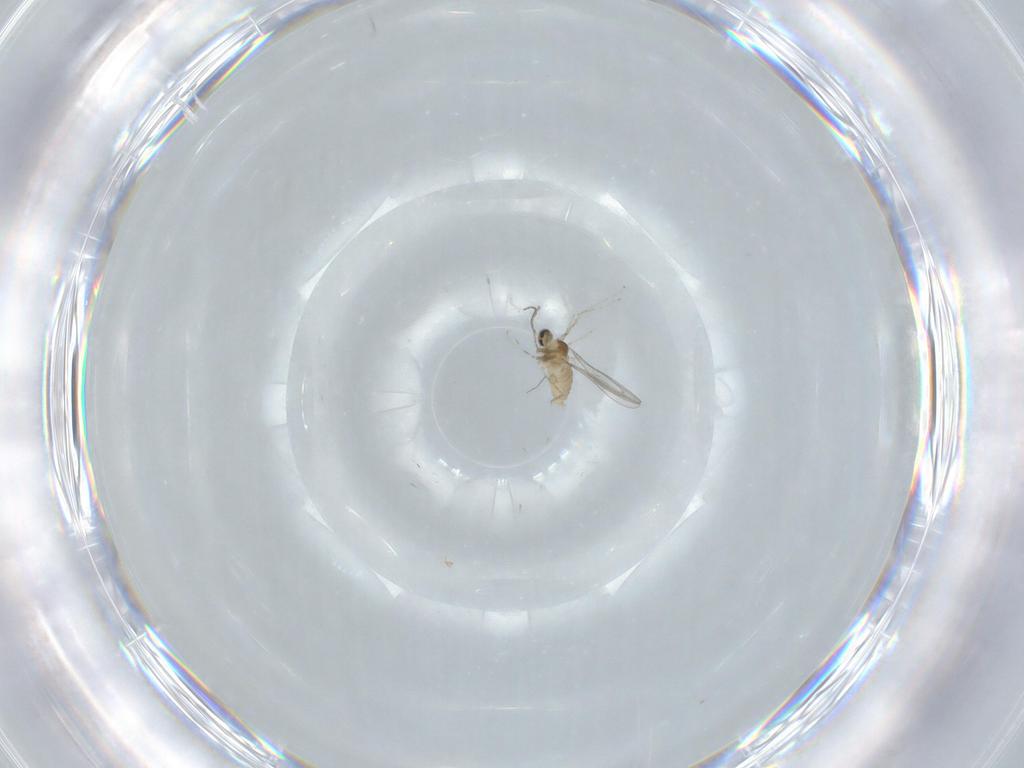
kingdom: Animalia
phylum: Arthropoda
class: Insecta
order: Diptera
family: Cecidomyiidae
